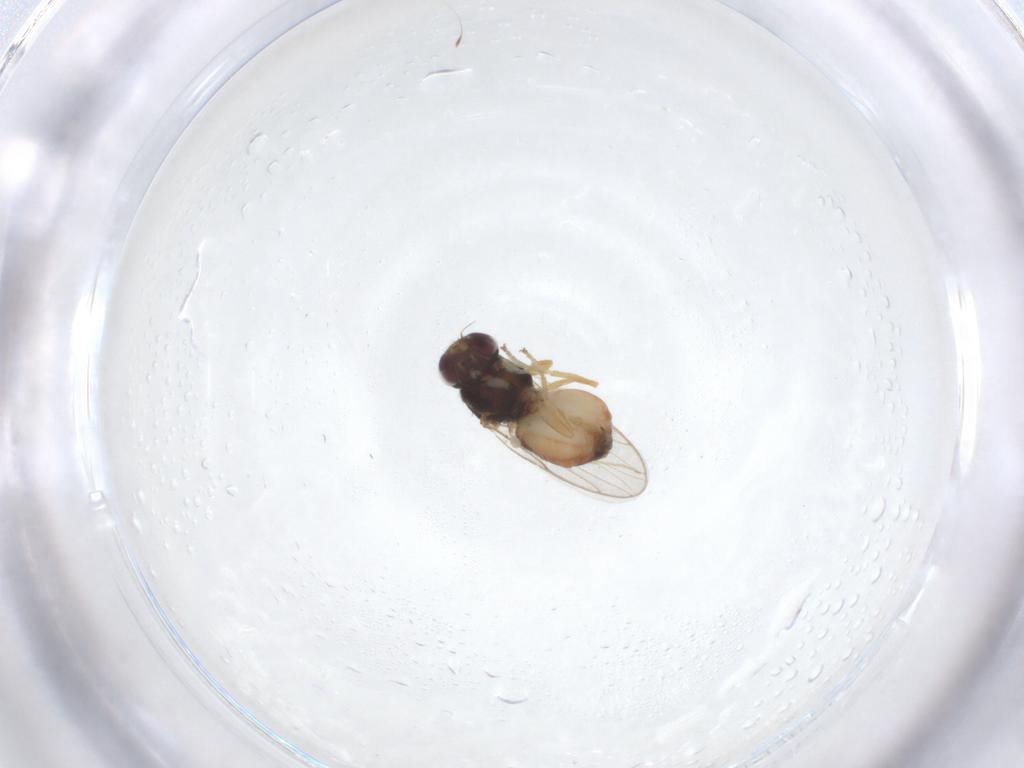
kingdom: Animalia
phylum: Arthropoda
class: Insecta
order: Diptera
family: Chloropidae
